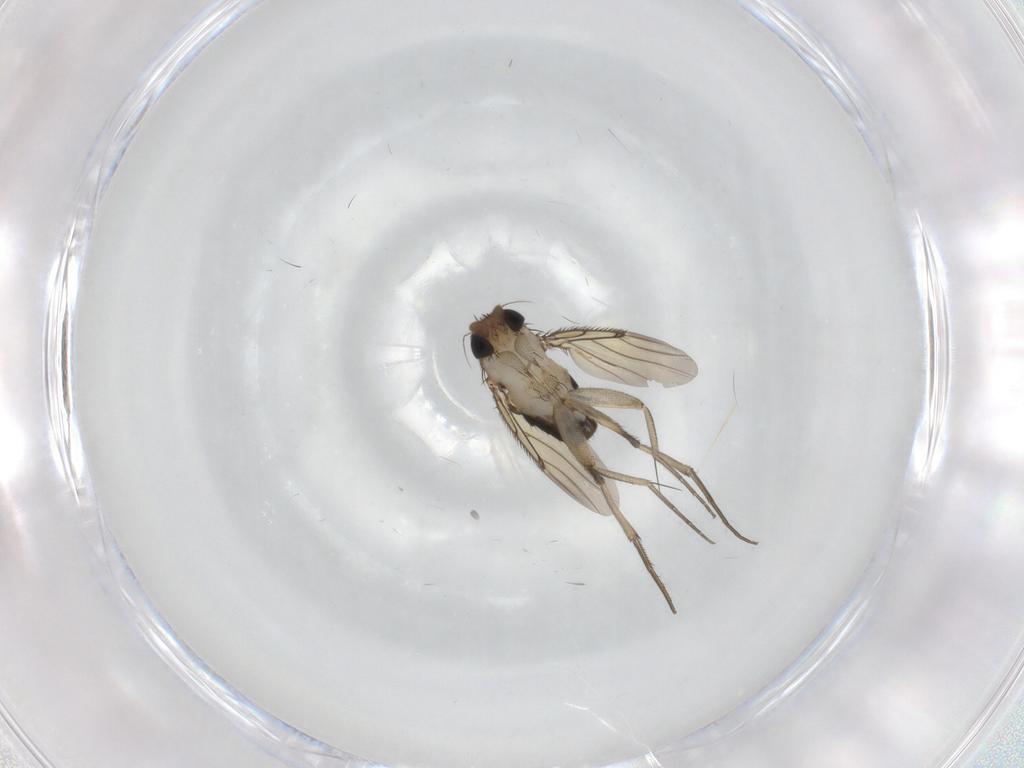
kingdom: Animalia
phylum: Arthropoda
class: Insecta
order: Diptera
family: Phoridae
